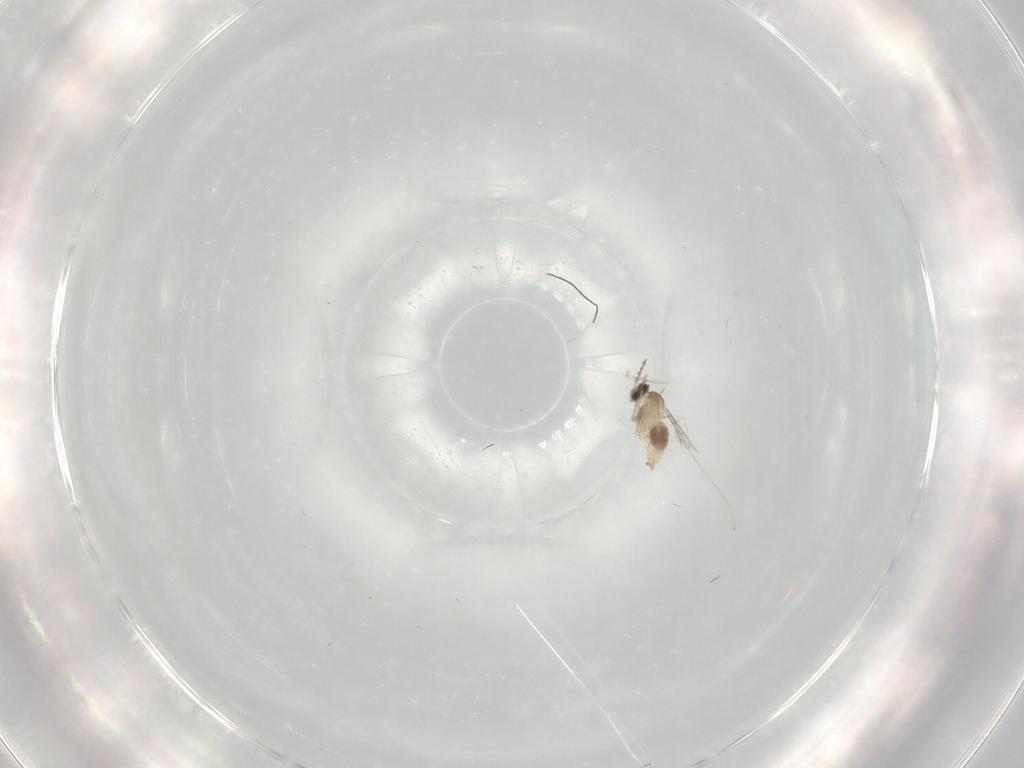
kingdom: Animalia
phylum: Arthropoda
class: Insecta
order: Diptera
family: Cecidomyiidae
